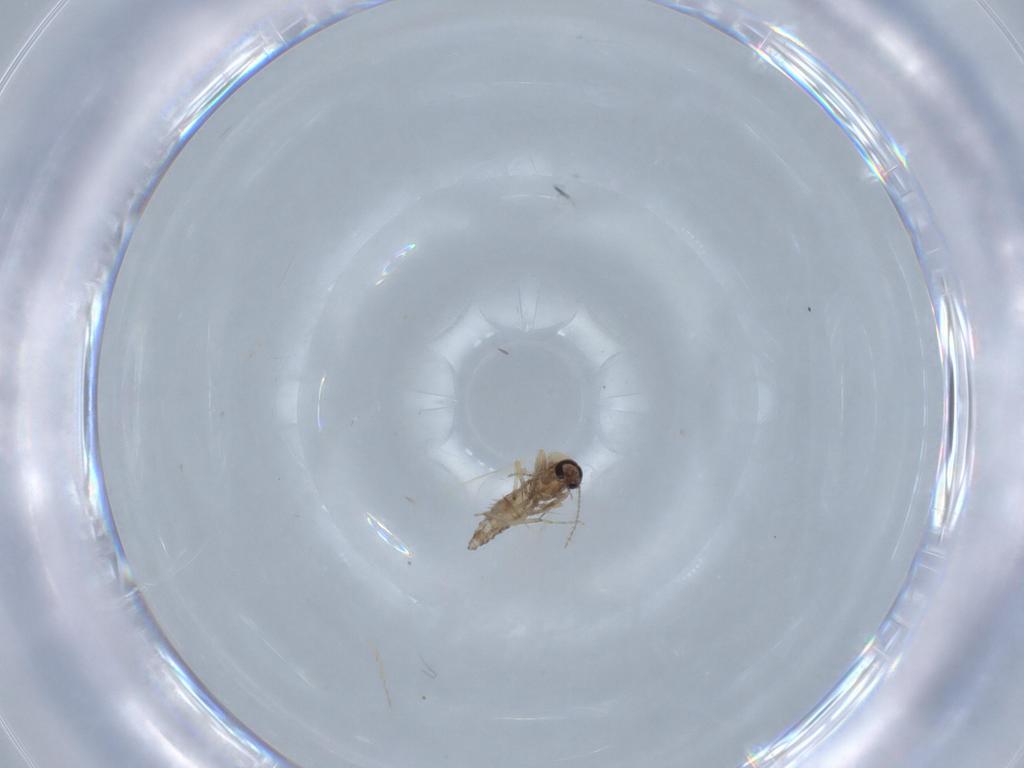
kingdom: Animalia
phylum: Arthropoda
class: Insecta
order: Diptera
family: Ceratopogonidae
